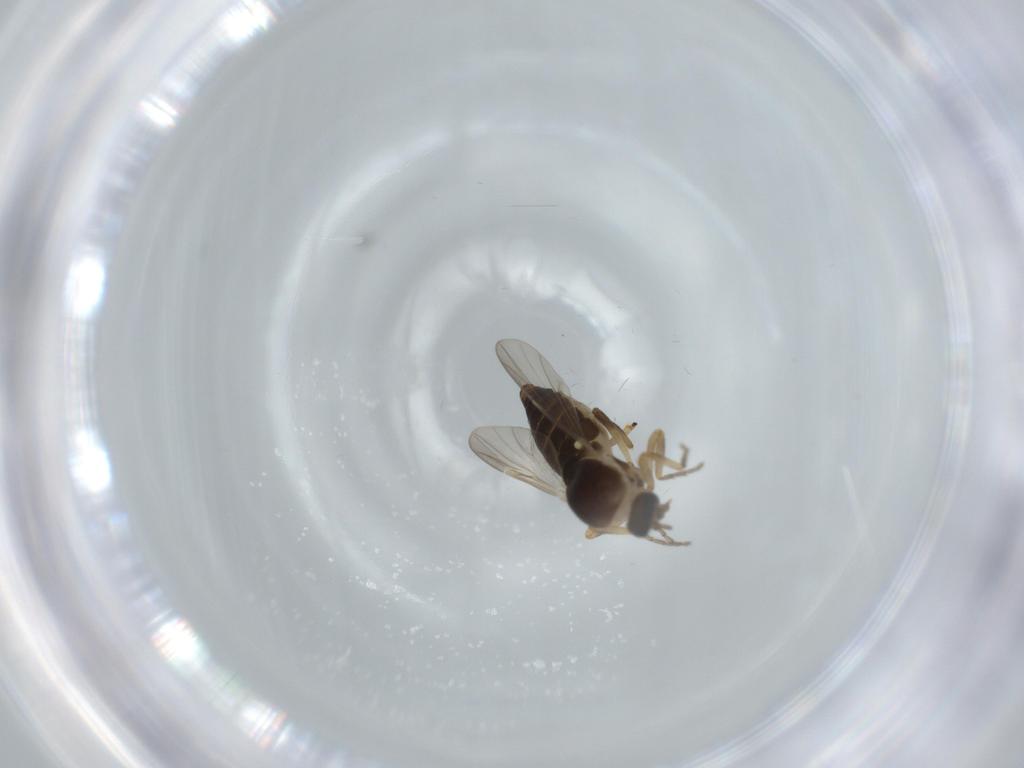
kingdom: Animalia
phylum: Arthropoda
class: Insecta
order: Diptera
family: Ceratopogonidae
